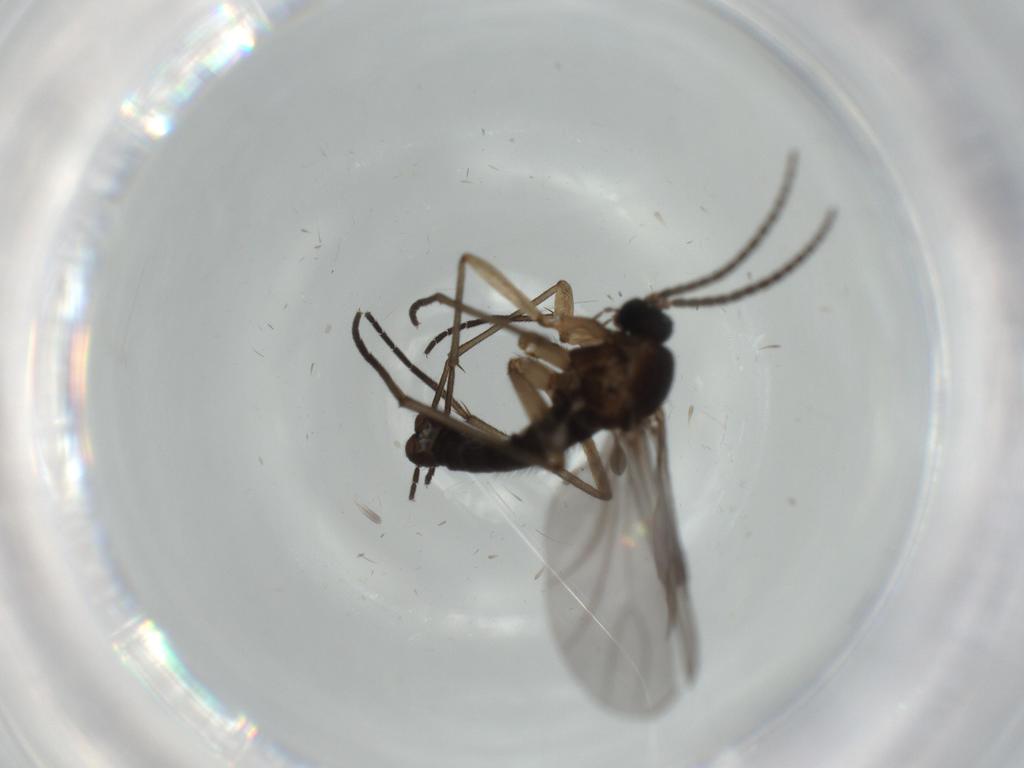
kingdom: Animalia
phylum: Arthropoda
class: Insecta
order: Diptera
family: Sciaridae
